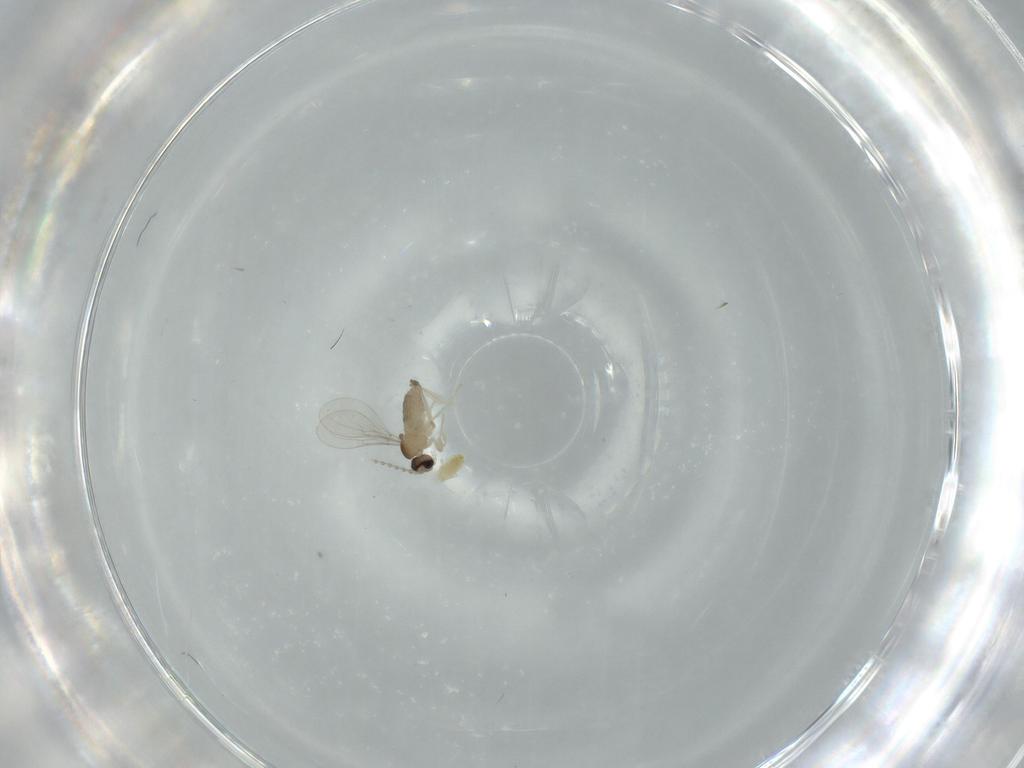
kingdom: Animalia
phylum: Arthropoda
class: Insecta
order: Diptera
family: Cecidomyiidae
